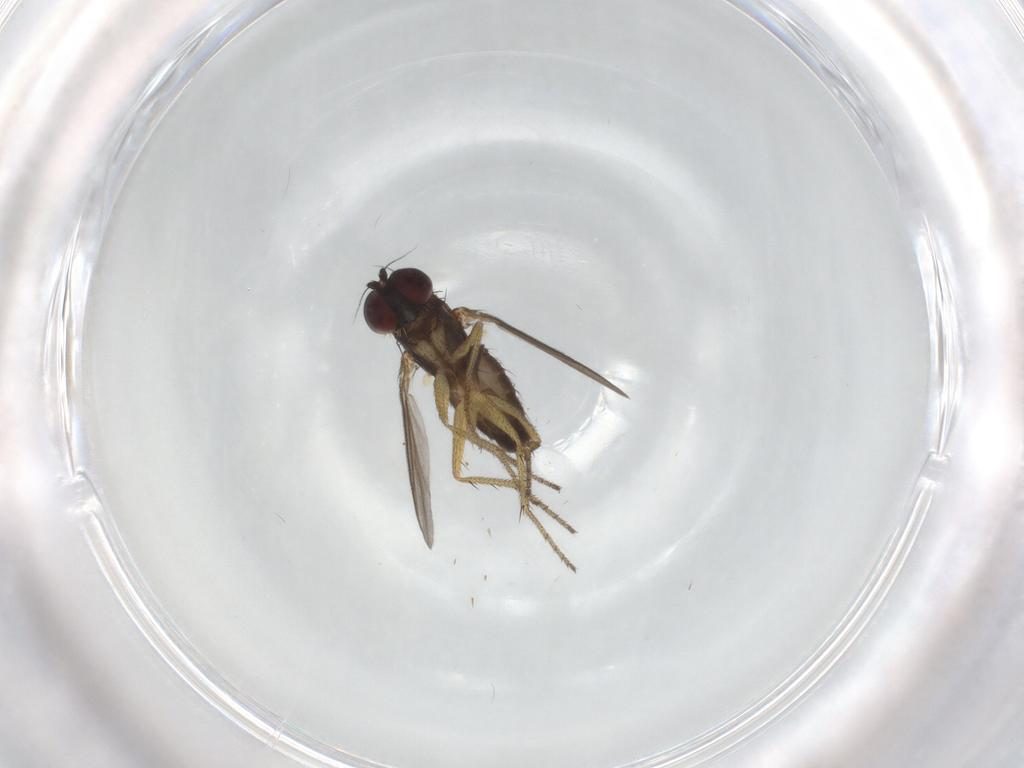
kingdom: Animalia
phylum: Arthropoda
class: Insecta
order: Diptera
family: Dolichopodidae
